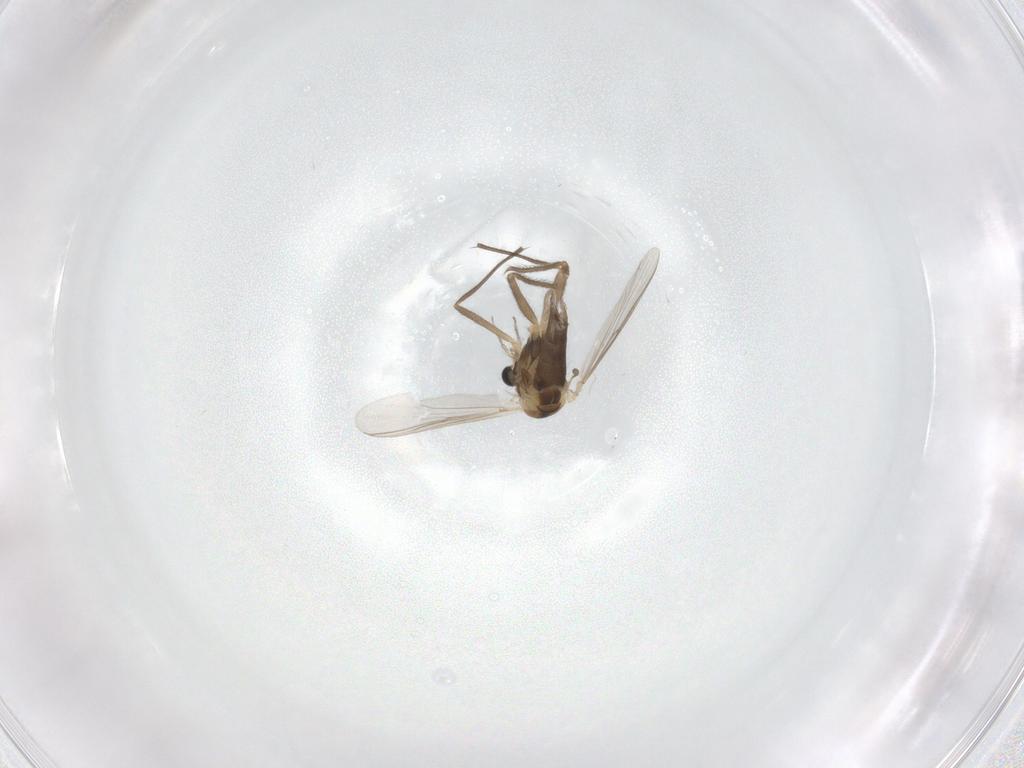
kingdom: Animalia
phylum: Arthropoda
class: Insecta
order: Diptera
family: Chironomidae
